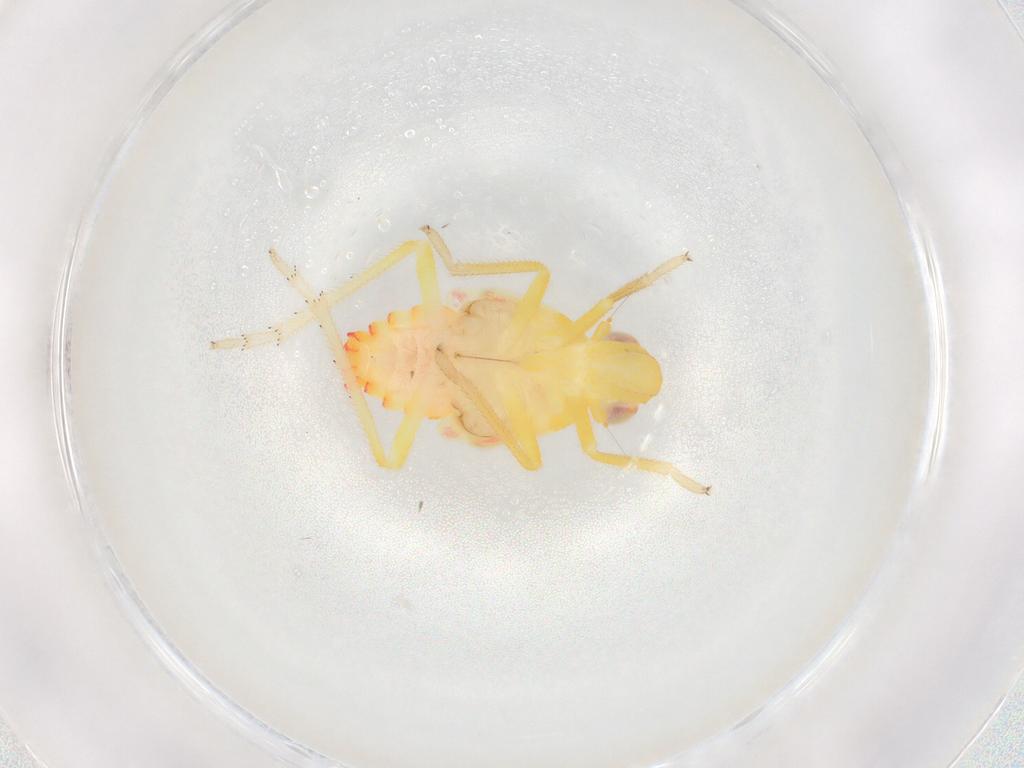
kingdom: Animalia
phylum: Arthropoda
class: Insecta
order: Hemiptera
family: Tropiduchidae
